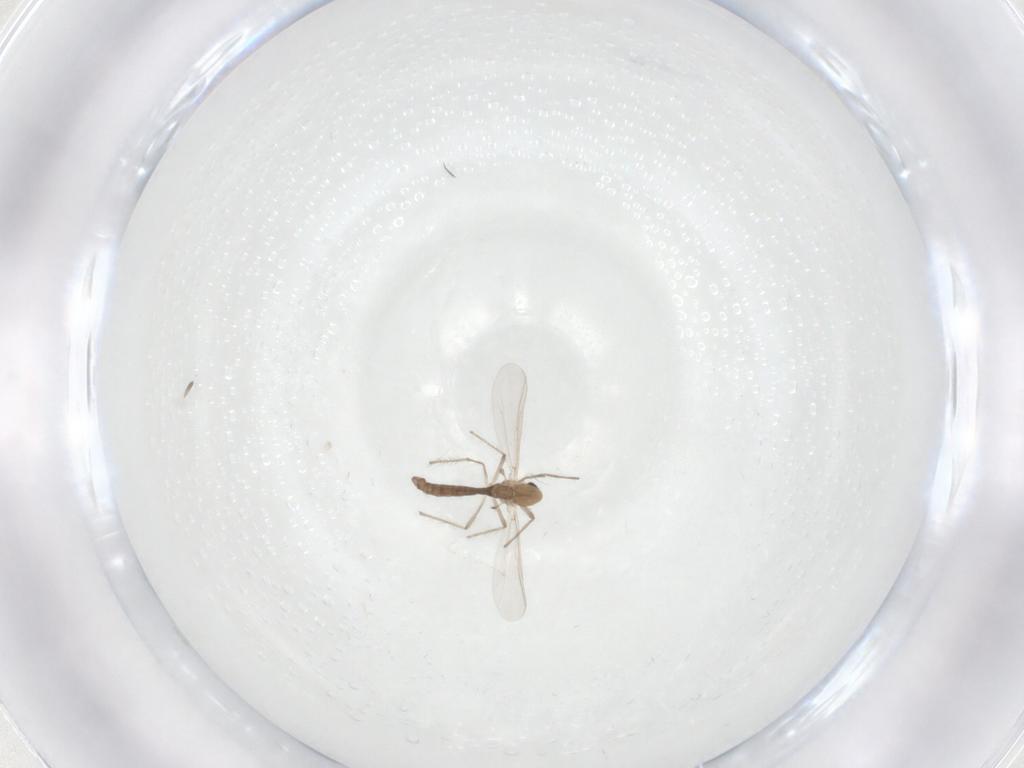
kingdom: Animalia
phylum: Arthropoda
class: Insecta
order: Diptera
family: Chironomidae
